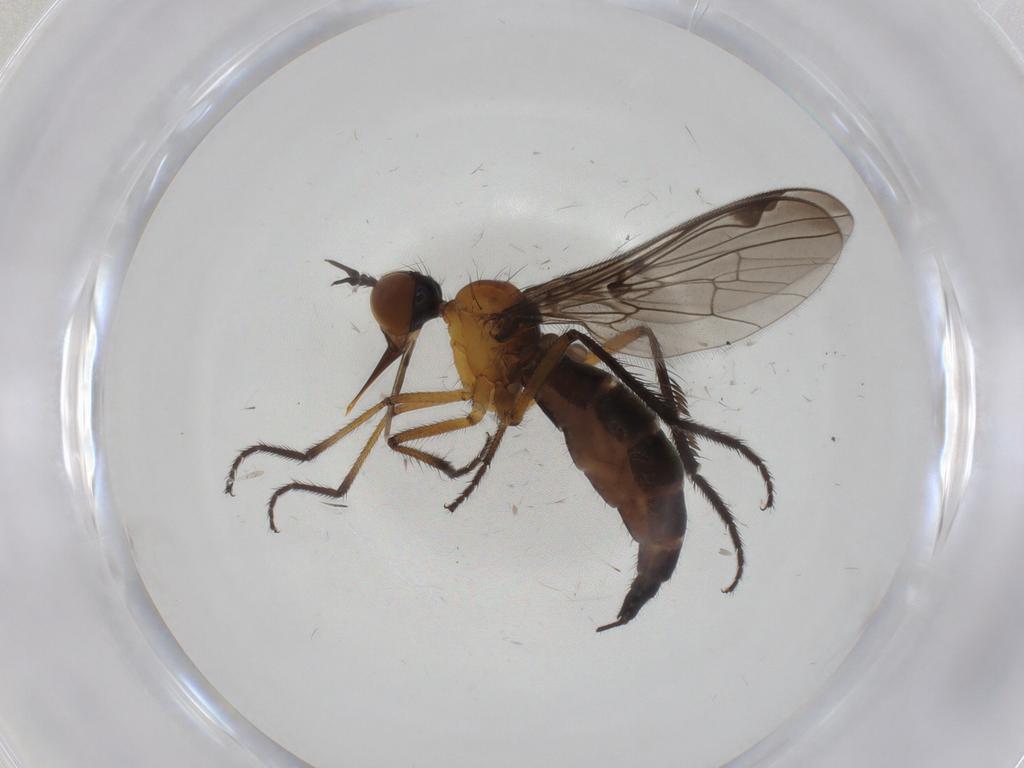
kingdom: Animalia
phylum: Arthropoda
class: Insecta
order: Diptera
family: Empididae
